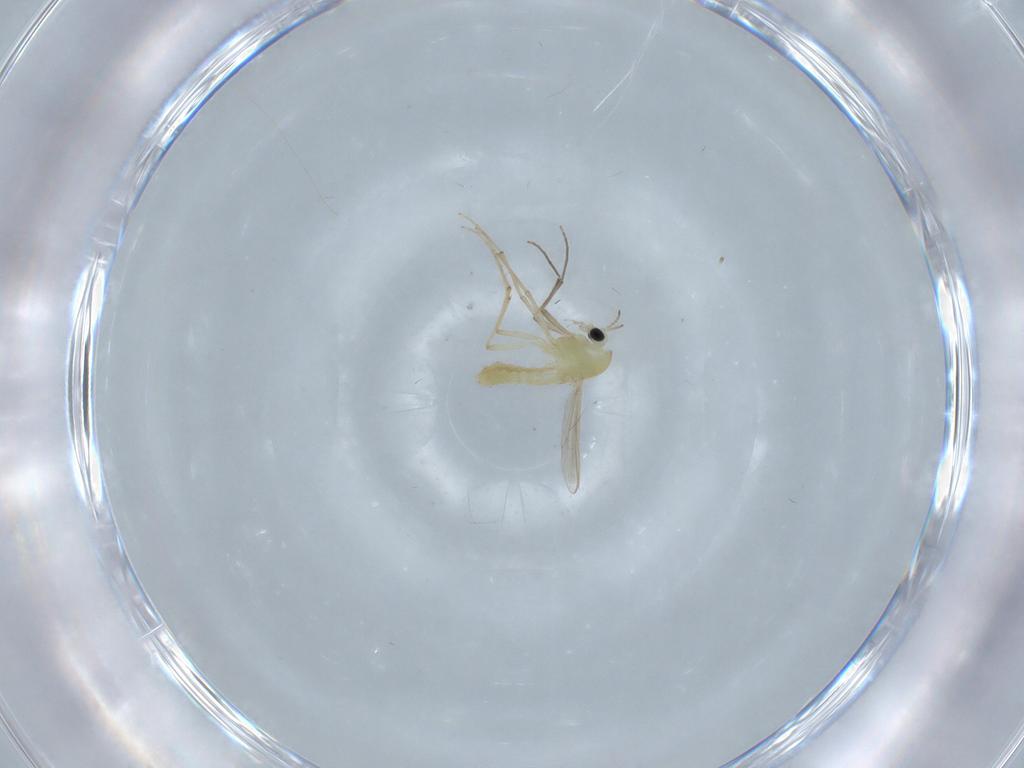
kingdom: Animalia
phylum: Arthropoda
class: Insecta
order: Diptera
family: Chironomidae
